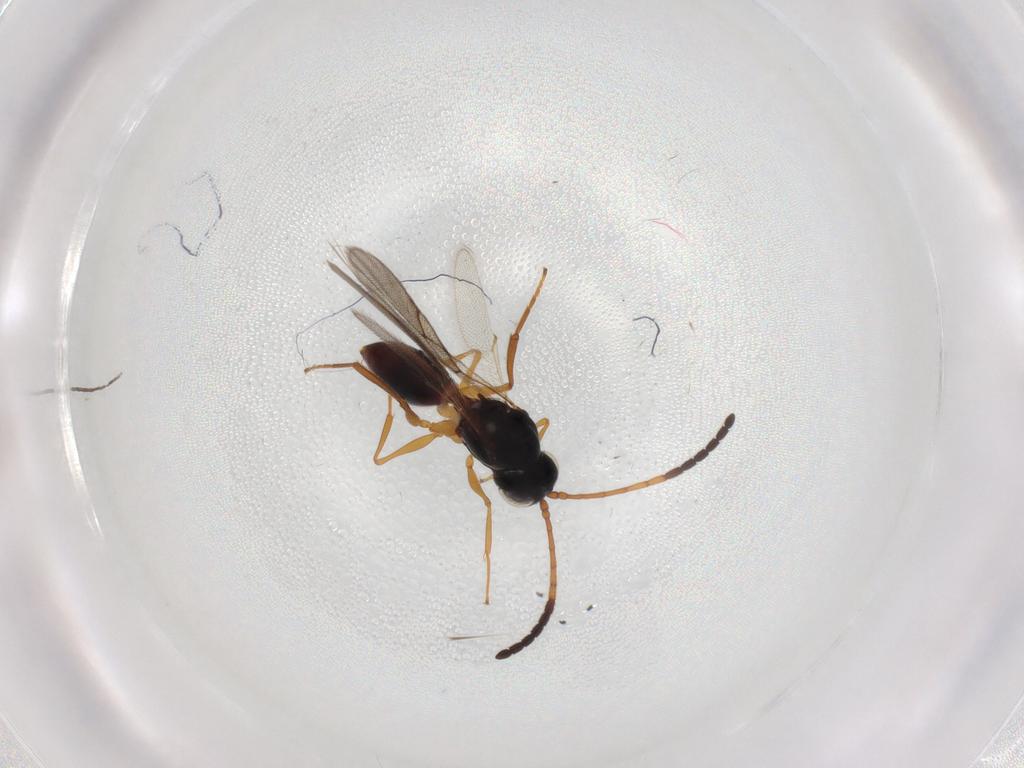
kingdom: Animalia
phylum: Arthropoda
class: Insecta
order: Hymenoptera
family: Figitidae
